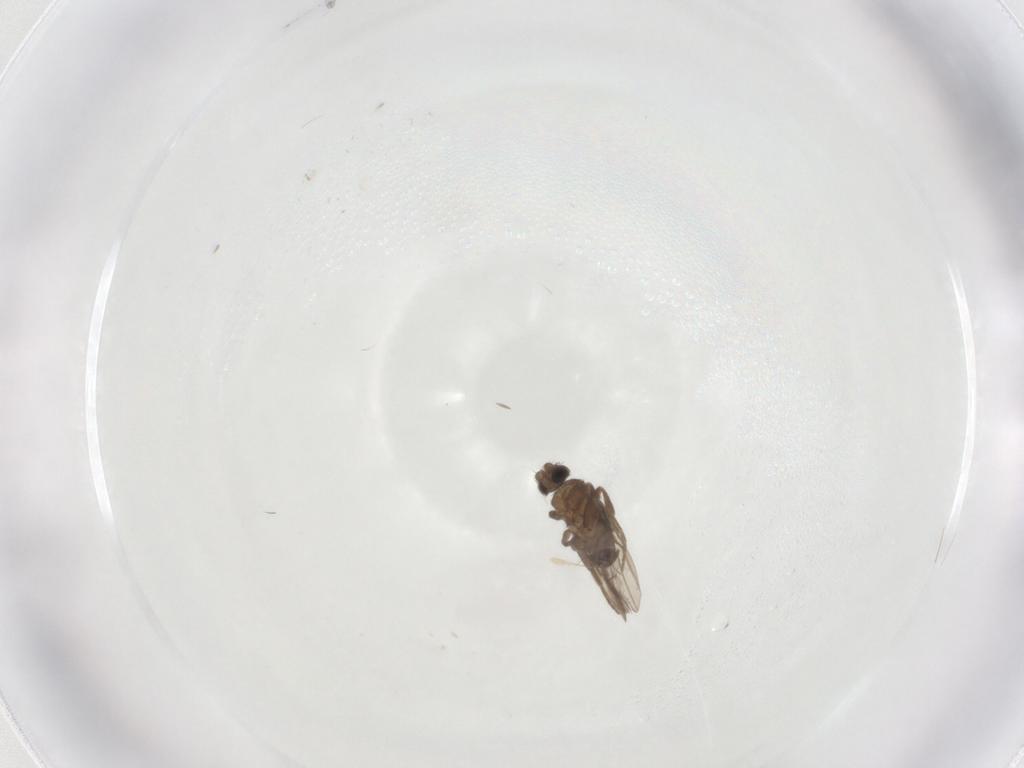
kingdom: Animalia
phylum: Arthropoda
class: Insecta
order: Diptera
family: Phoridae
